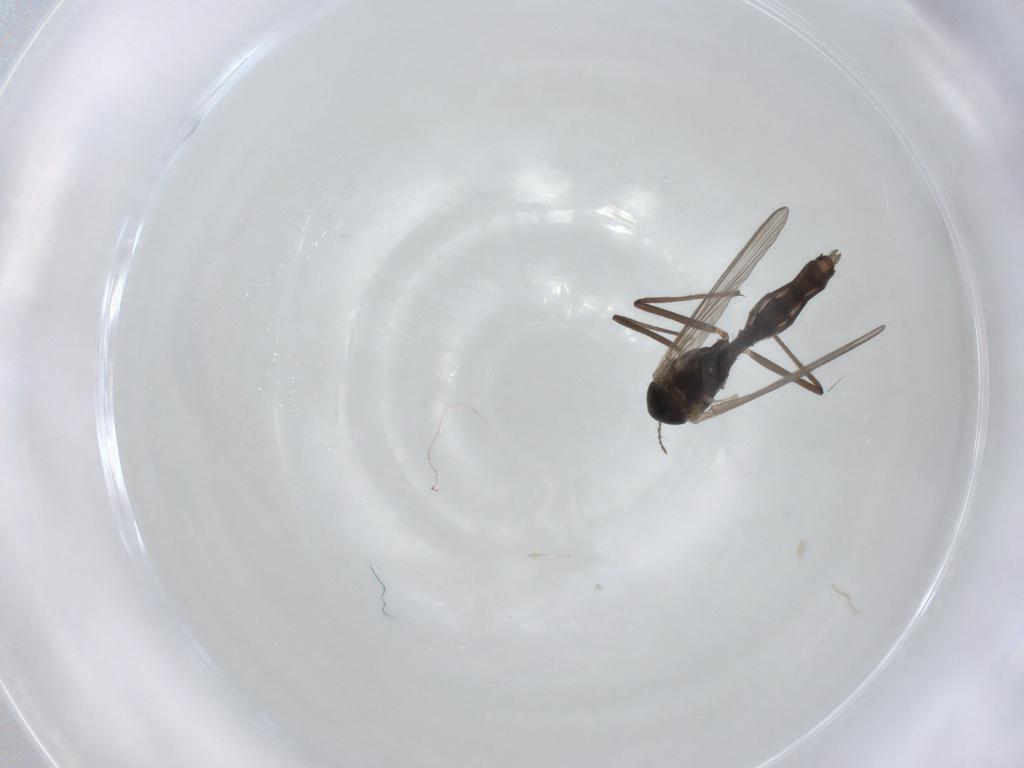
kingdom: Animalia
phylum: Arthropoda
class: Insecta
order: Diptera
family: Chironomidae
